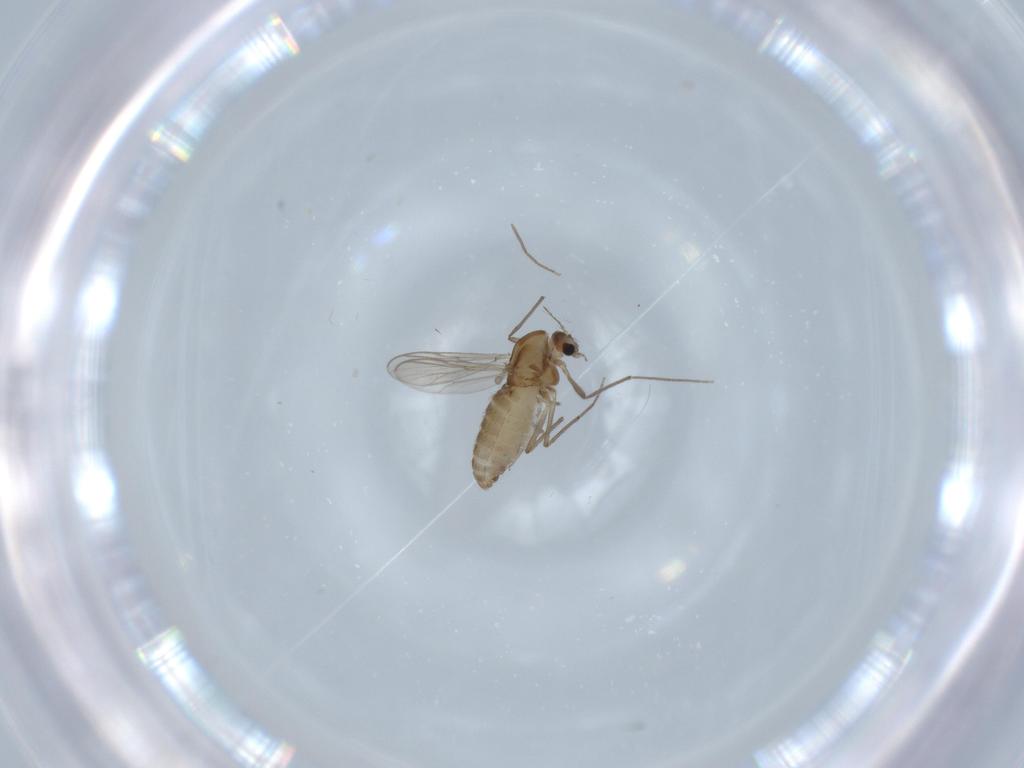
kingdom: Animalia
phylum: Arthropoda
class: Insecta
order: Diptera
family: Chironomidae
